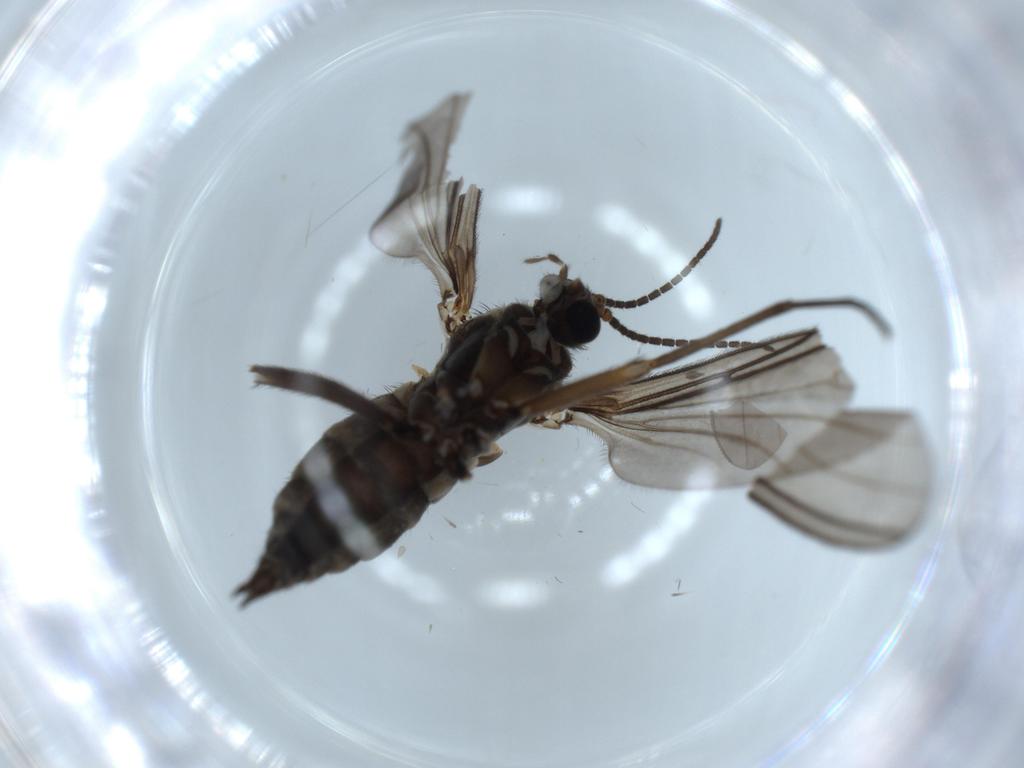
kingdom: Animalia
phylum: Arthropoda
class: Insecta
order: Diptera
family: Sciaridae
